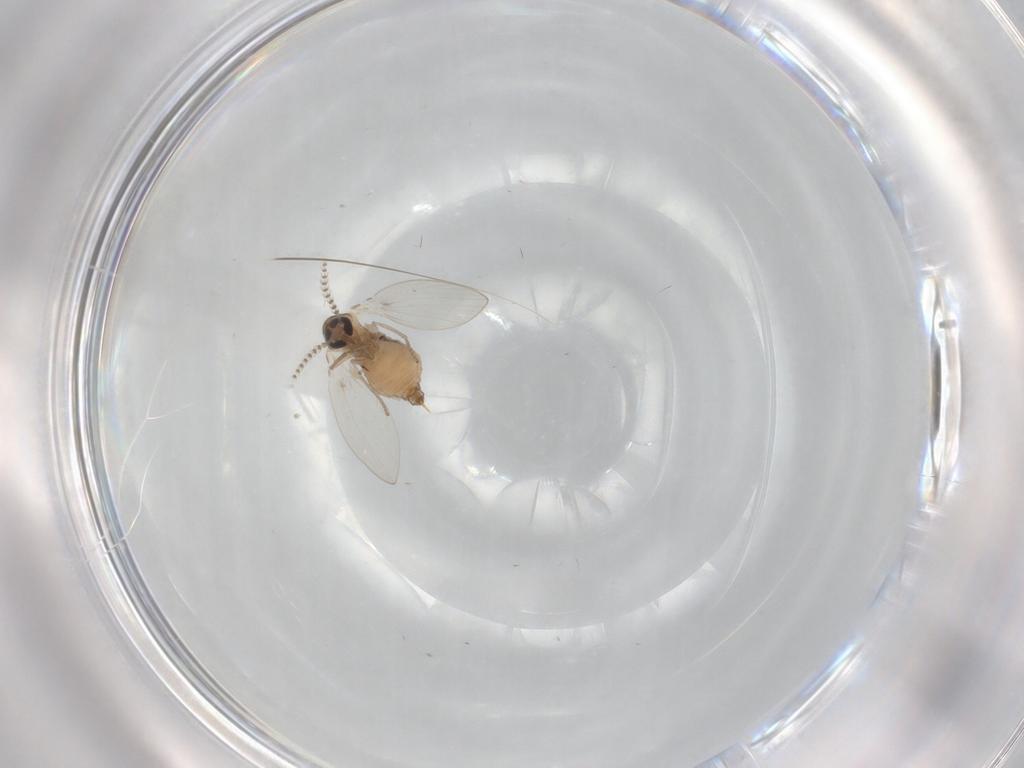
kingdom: Animalia
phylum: Arthropoda
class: Insecta
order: Diptera
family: Psychodidae
